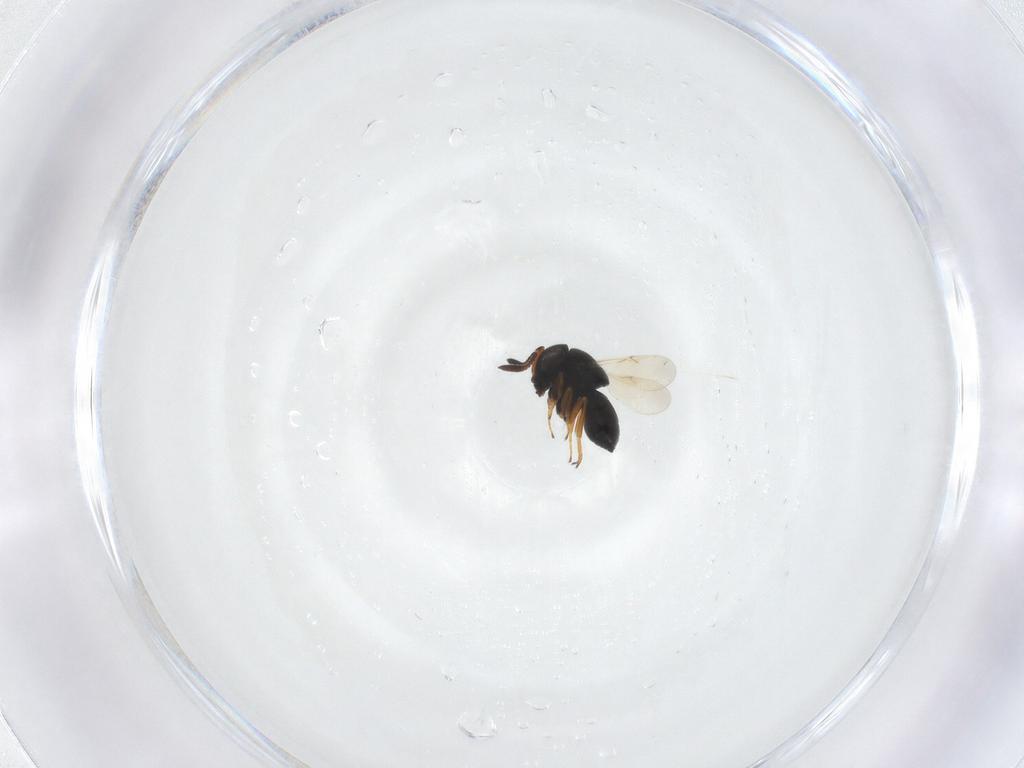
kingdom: Animalia
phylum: Arthropoda
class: Insecta
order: Hymenoptera
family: Scelionidae
